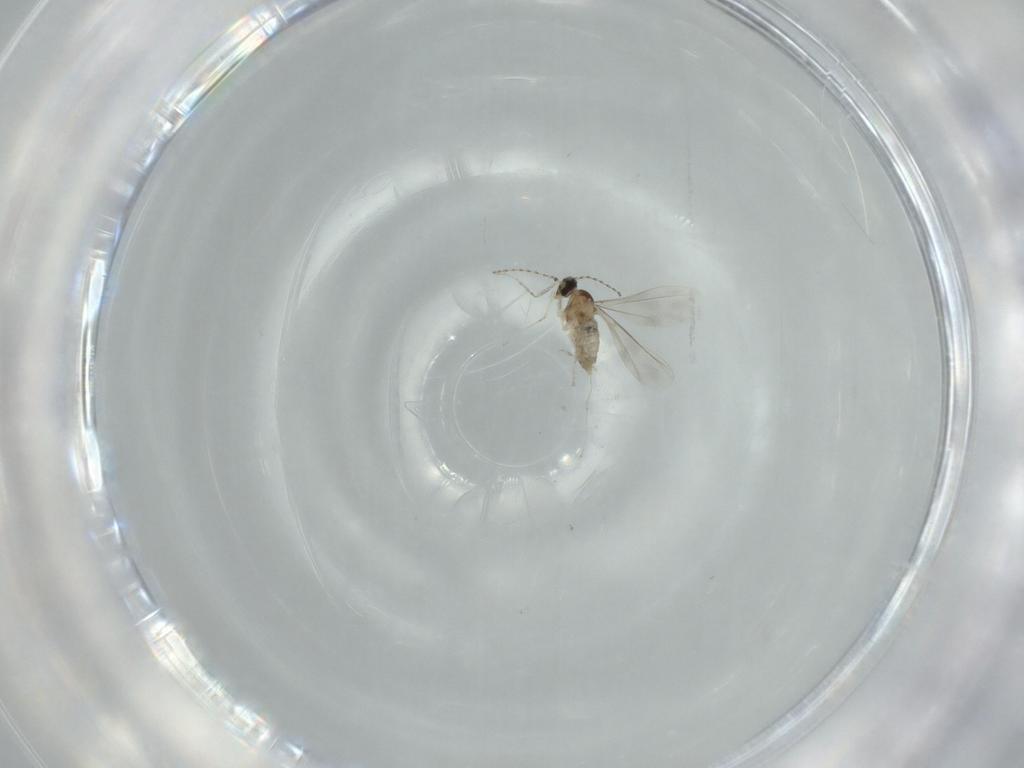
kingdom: Animalia
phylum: Arthropoda
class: Insecta
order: Diptera
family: Cecidomyiidae
